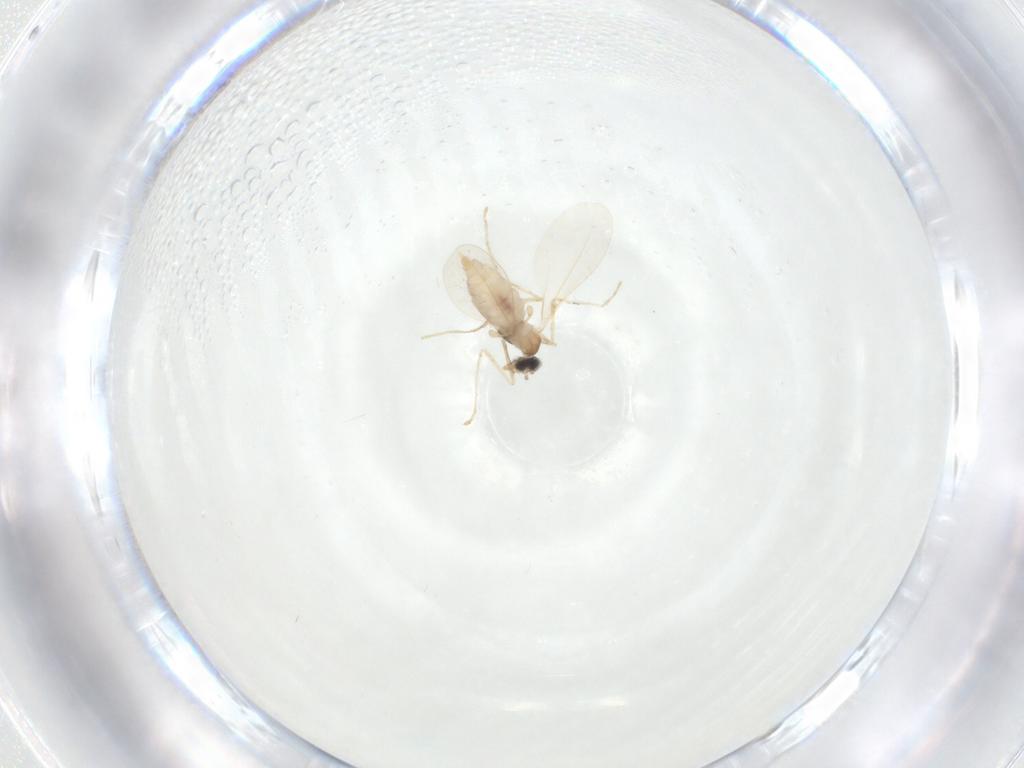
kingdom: Animalia
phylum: Arthropoda
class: Insecta
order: Diptera
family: Cecidomyiidae
